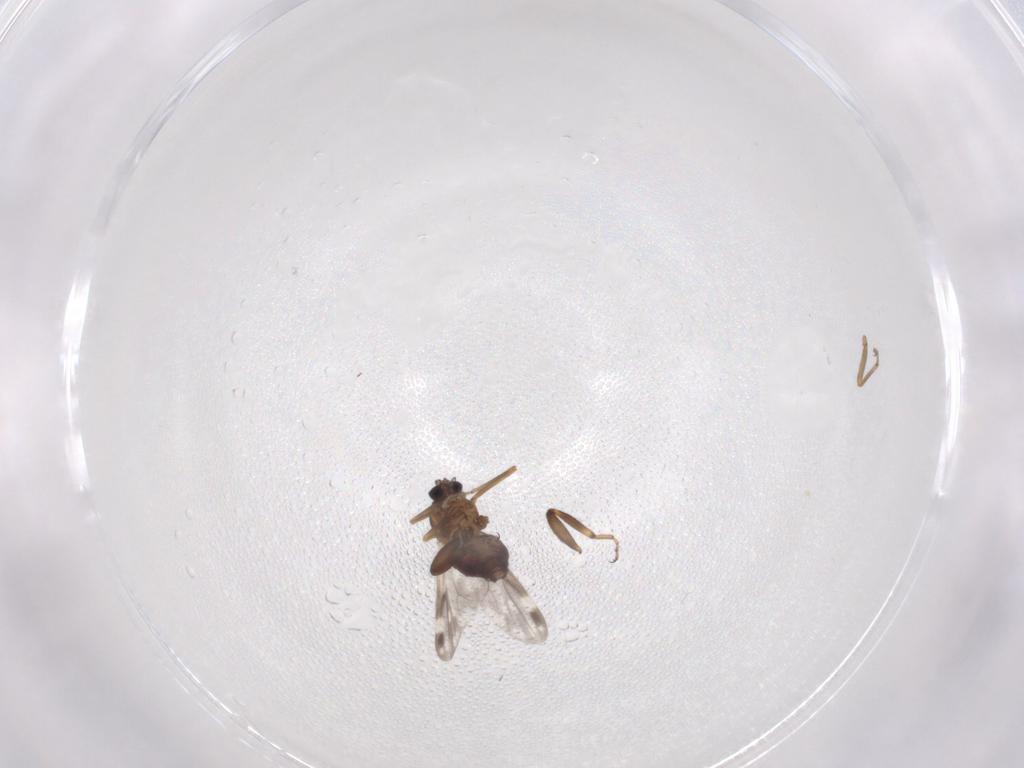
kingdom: Animalia
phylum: Arthropoda
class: Insecta
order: Diptera
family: Ceratopogonidae
